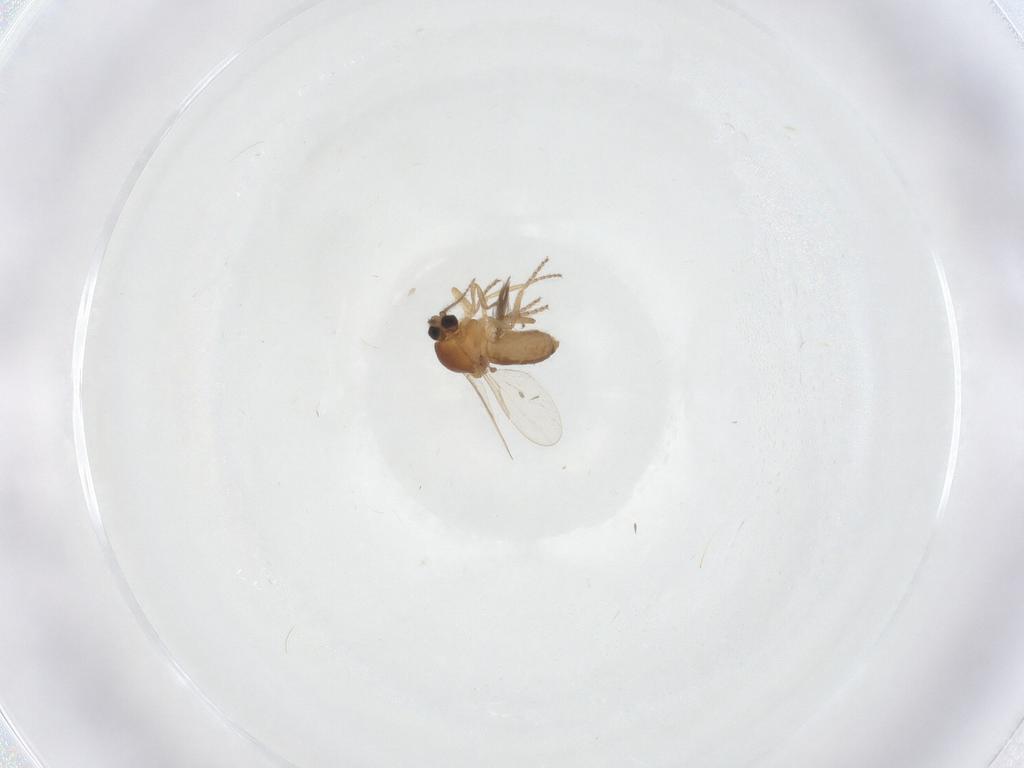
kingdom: Animalia
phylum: Arthropoda
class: Insecta
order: Diptera
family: Ceratopogonidae
